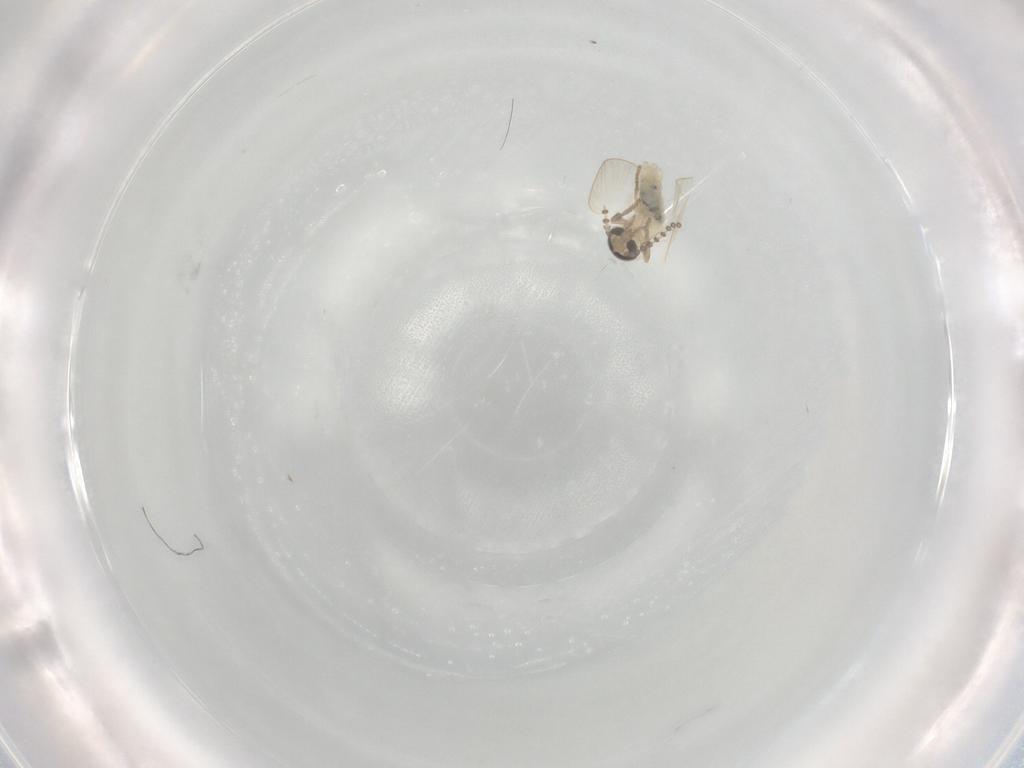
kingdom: Animalia
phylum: Arthropoda
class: Insecta
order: Diptera
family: Psychodidae
